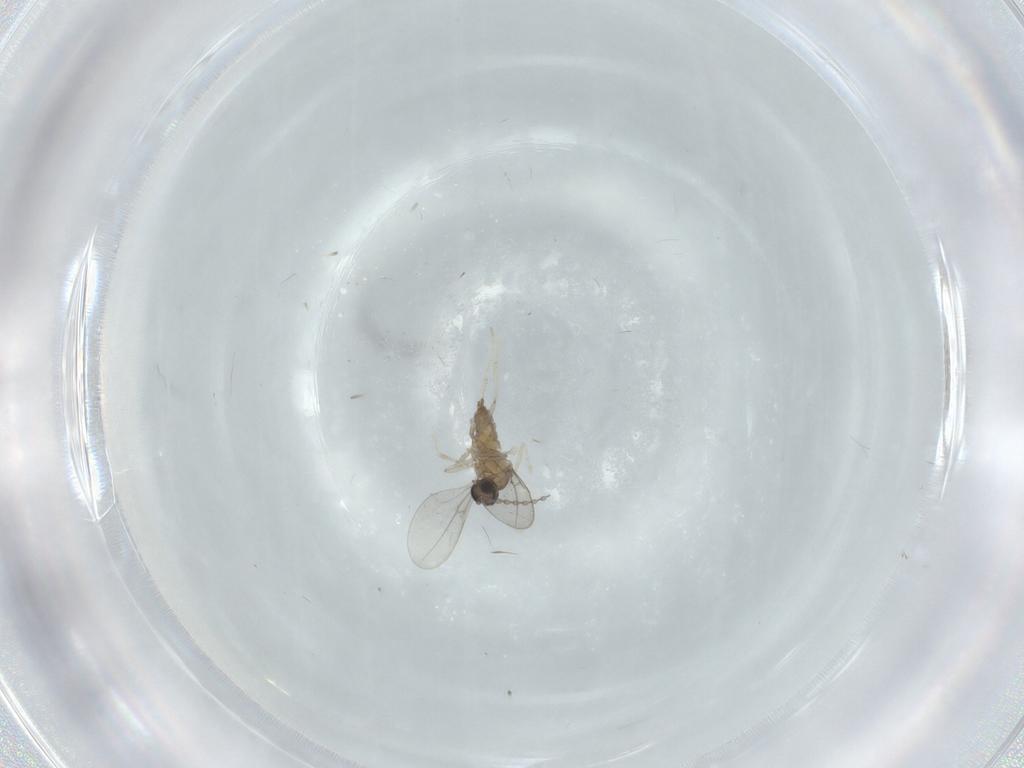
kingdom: Animalia
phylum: Arthropoda
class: Insecta
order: Diptera
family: Cecidomyiidae
